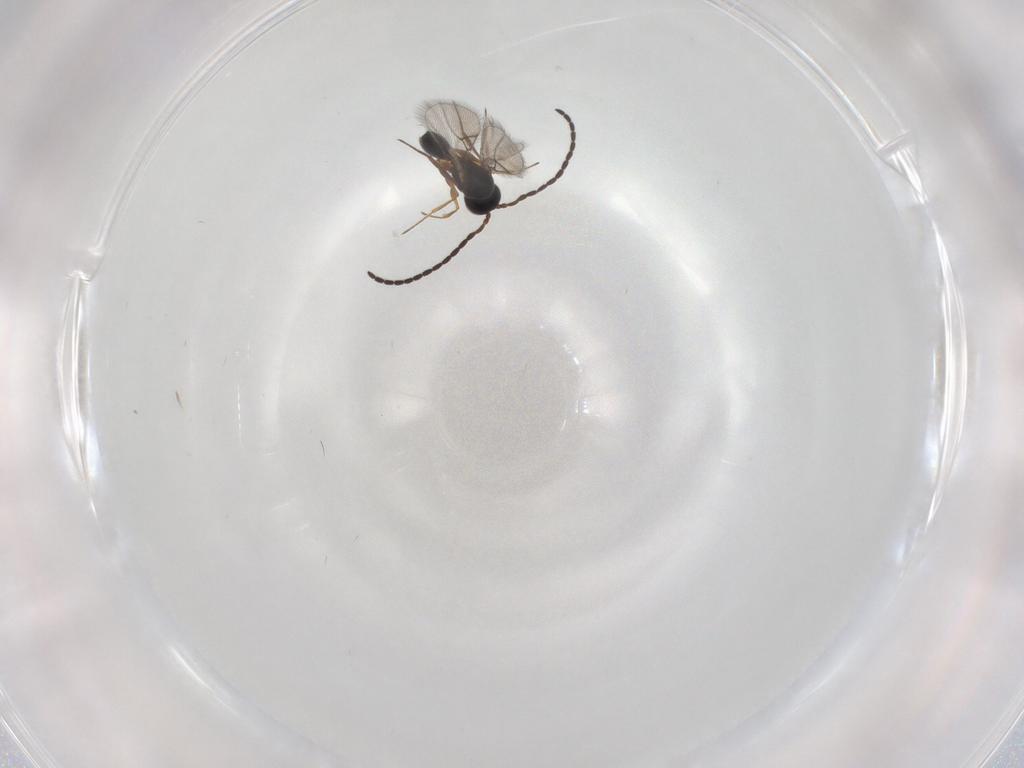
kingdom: Animalia
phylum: Arthropoda
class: Insecta
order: Hymenoptera
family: Figitidae
